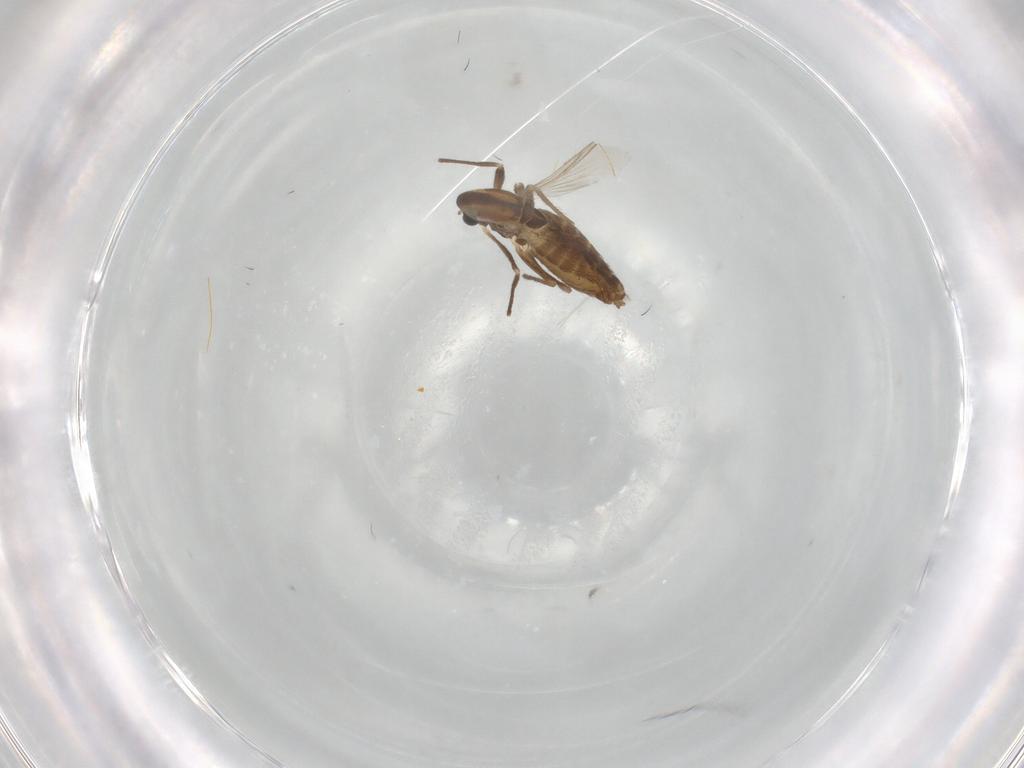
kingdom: Animalia
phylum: Arthropoda
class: Insecta
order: Diptera
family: Chironomidae
